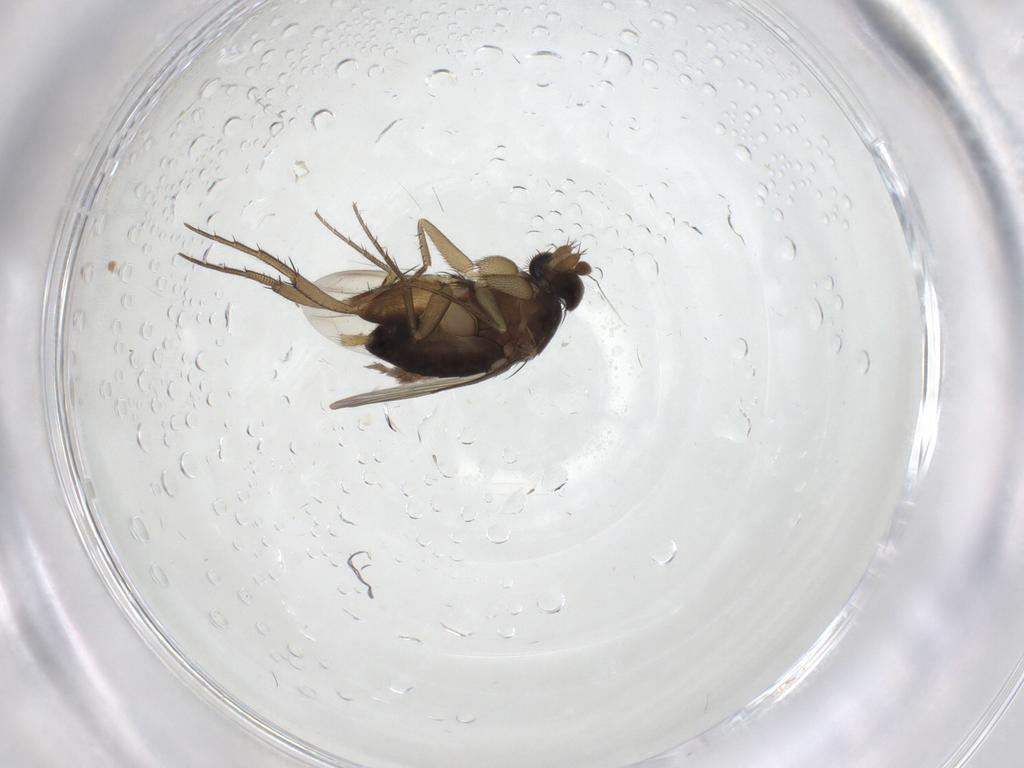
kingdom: Animalia
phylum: Arthropoda
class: Insecta
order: Diptera
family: Phoridae
